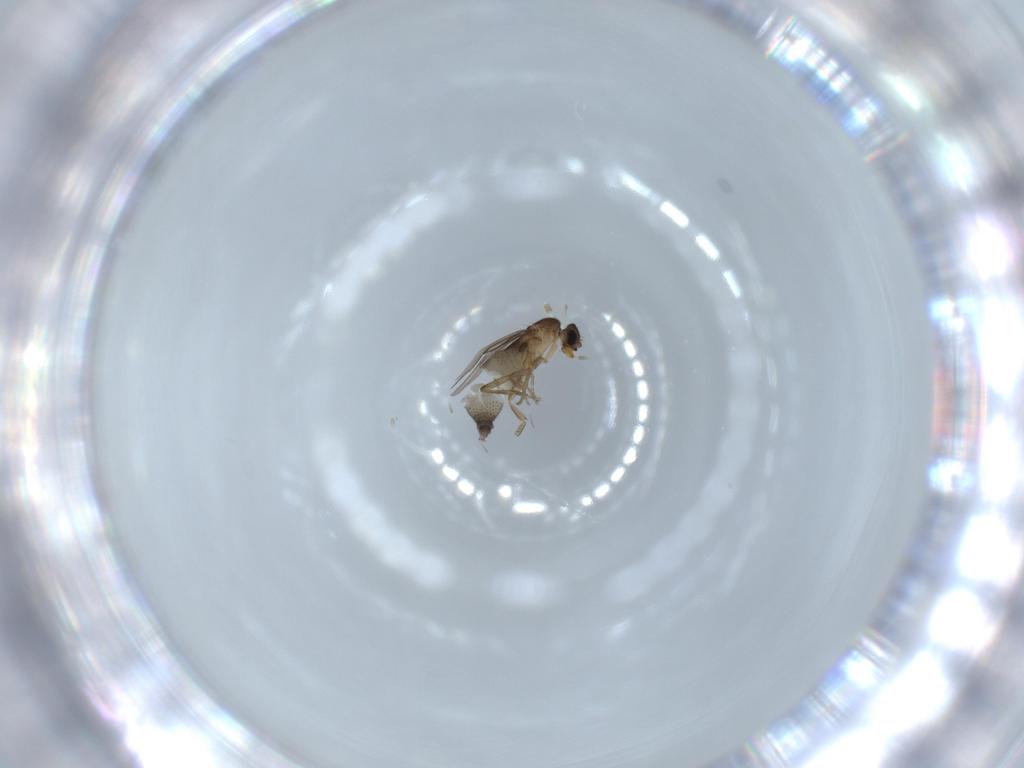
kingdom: Animalia
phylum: Arthropoda
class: Insecta
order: Diptera
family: Phoridae
